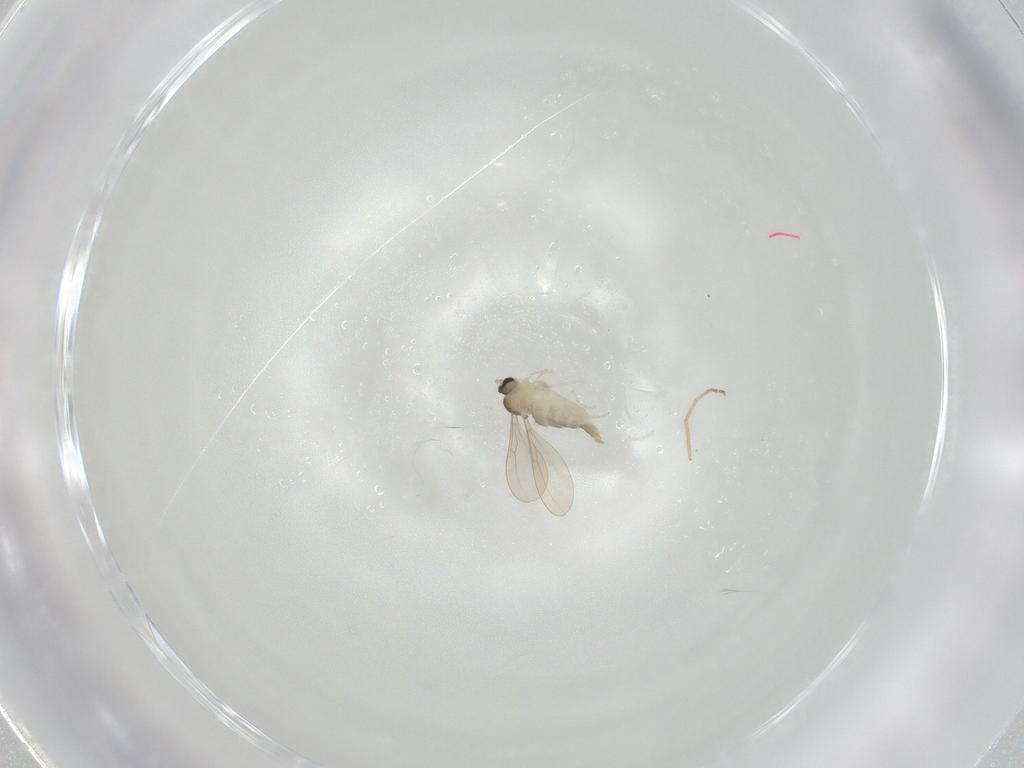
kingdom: Animalia
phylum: Arthropoda
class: Insecta
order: Diptera
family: Cecidomyiidae
